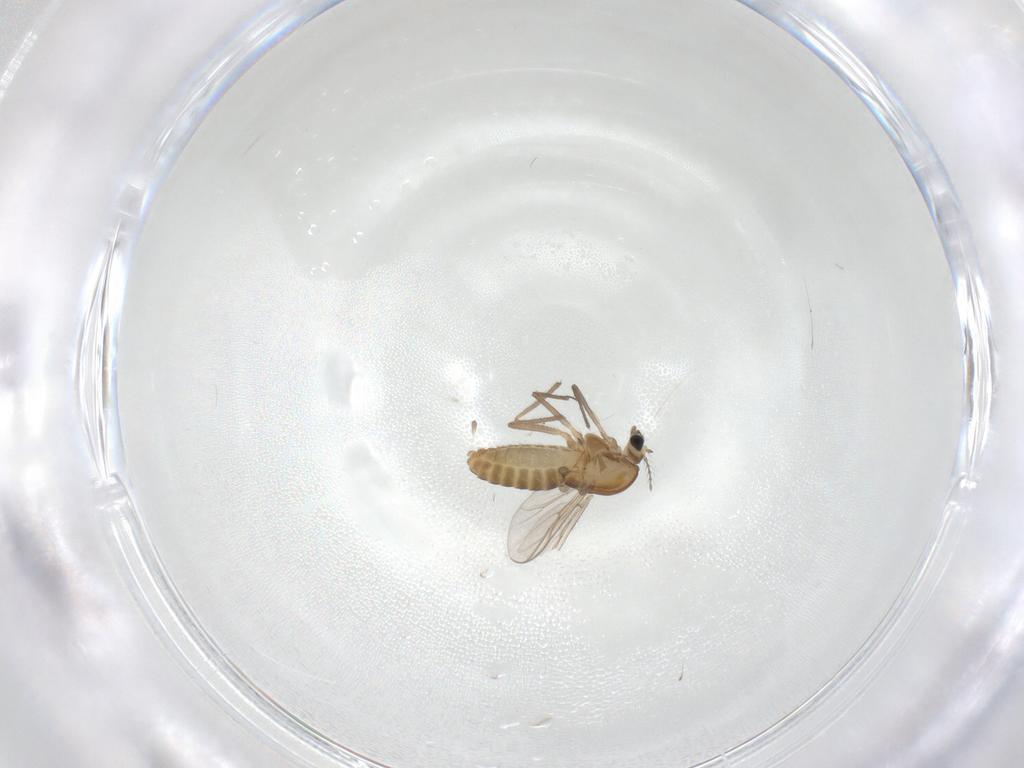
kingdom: Animalia
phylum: Arthropoda
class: Insecta
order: Diptera
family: Chironomidae
